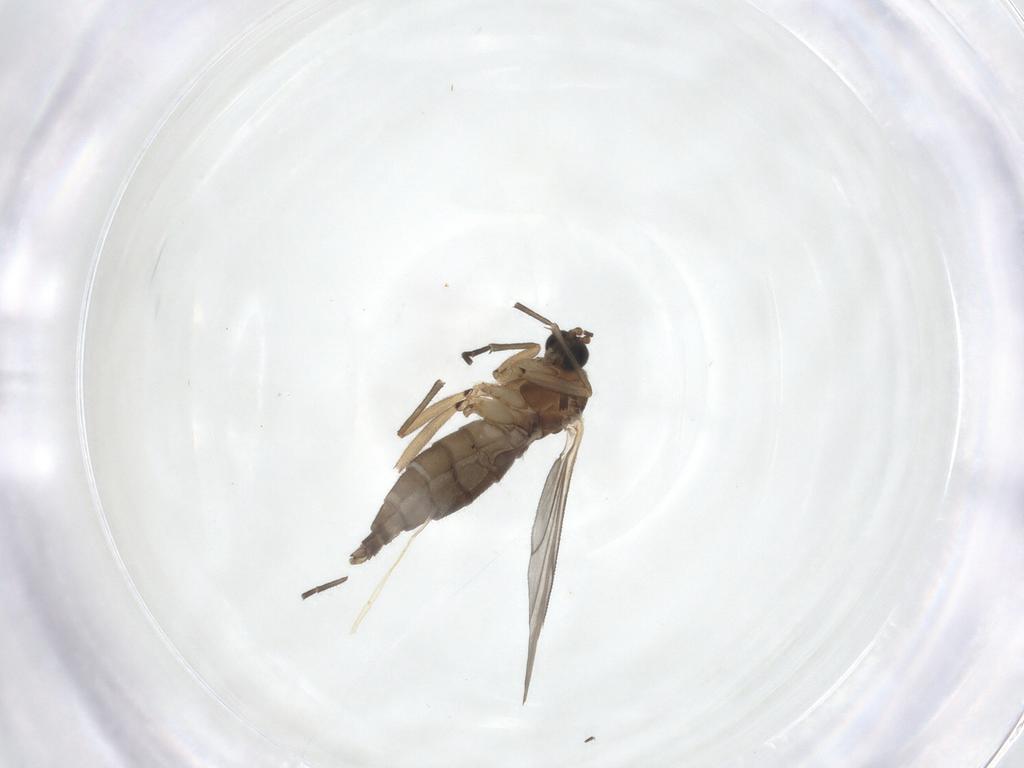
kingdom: Animalia
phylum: Arthropoda
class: Insecta
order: Diptera
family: Sciaridae
